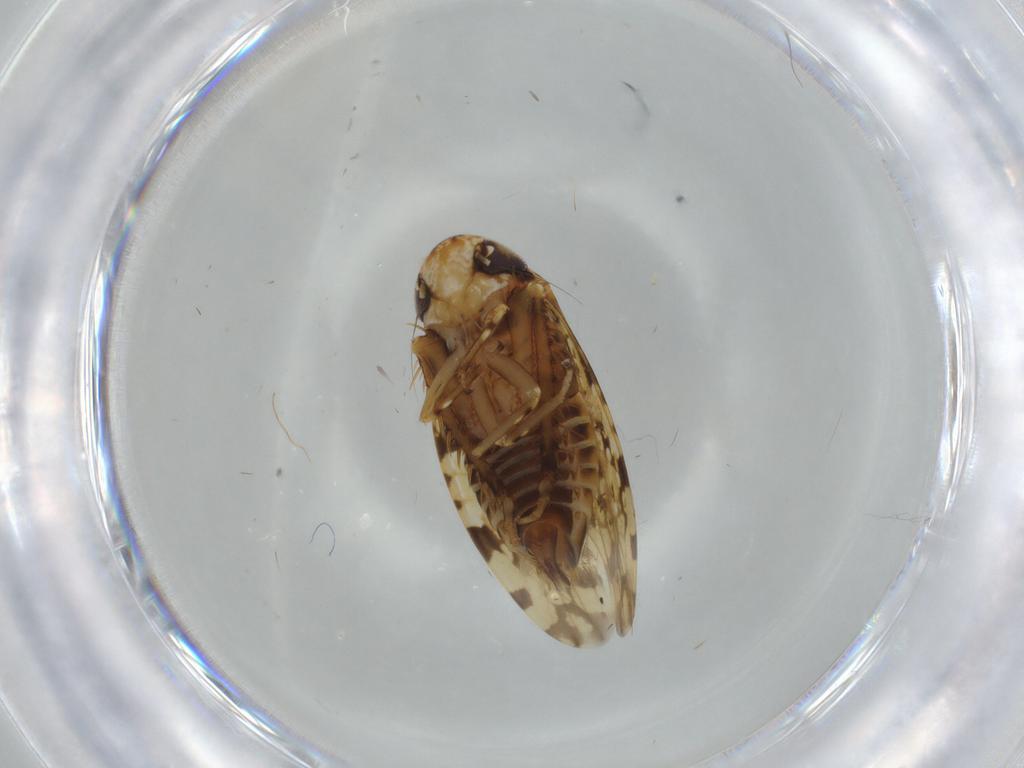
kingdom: Animalia
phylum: Arthropoda
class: Insecta
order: Hemiptera
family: Cicadellidae
